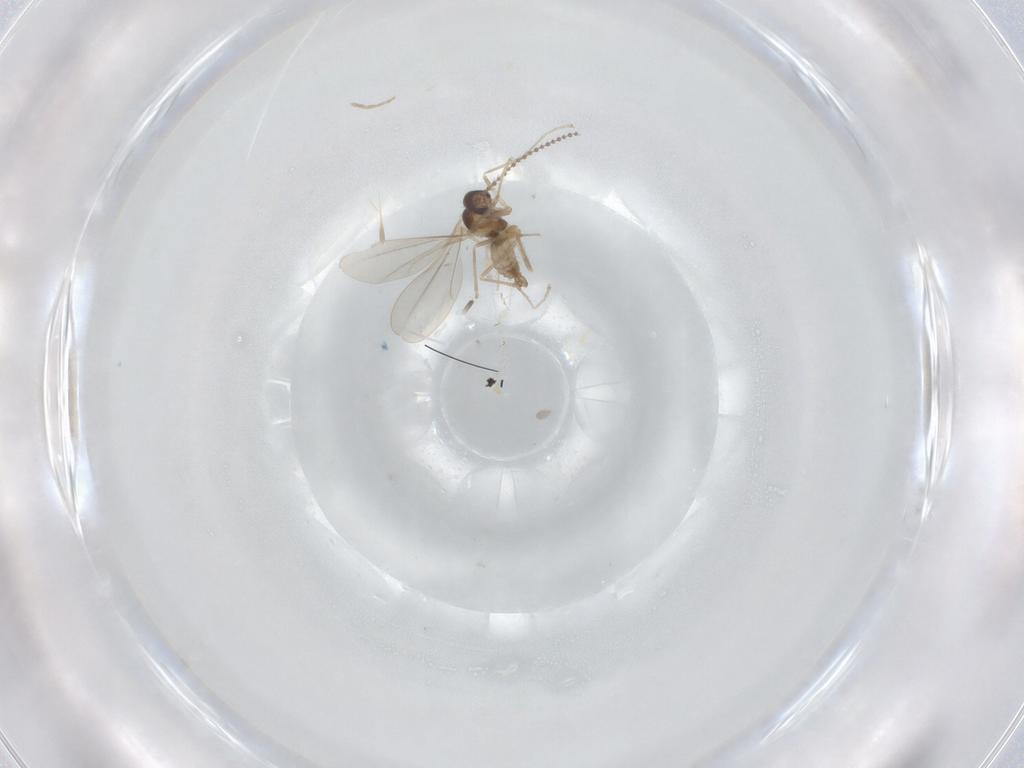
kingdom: Animalia
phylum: Arthropoda
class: Insecta
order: Diptera
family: Cecidomyiidae
